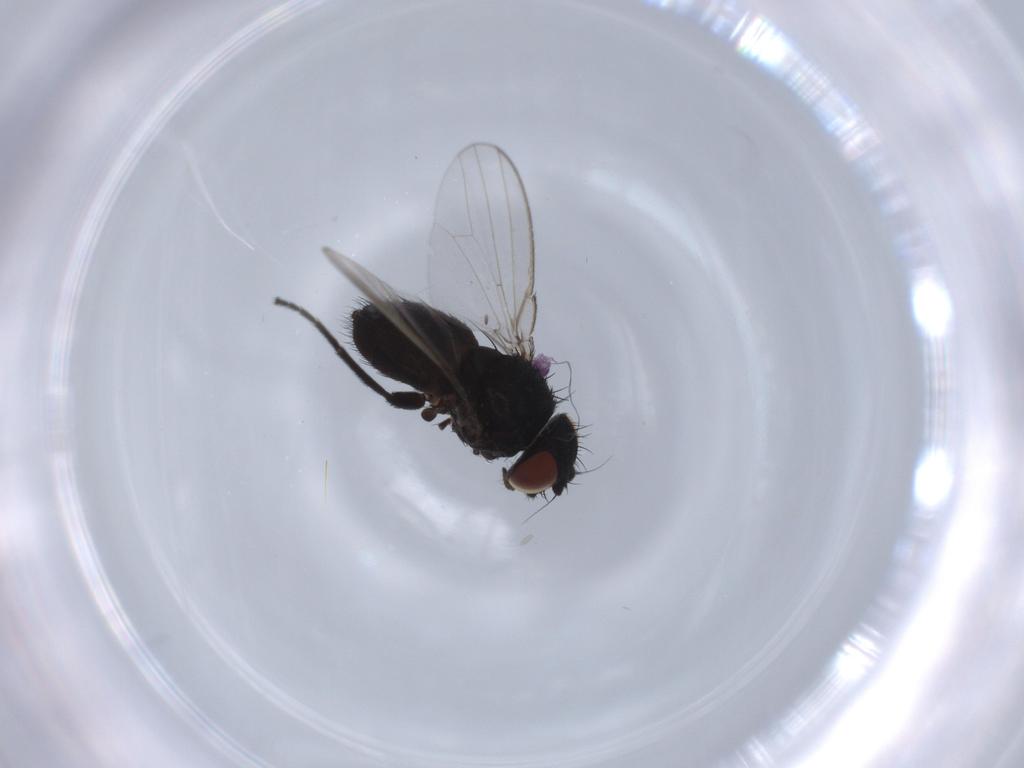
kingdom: Animalia
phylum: Arthropoda
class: Insecta
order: Diptera
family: Milichiidae
